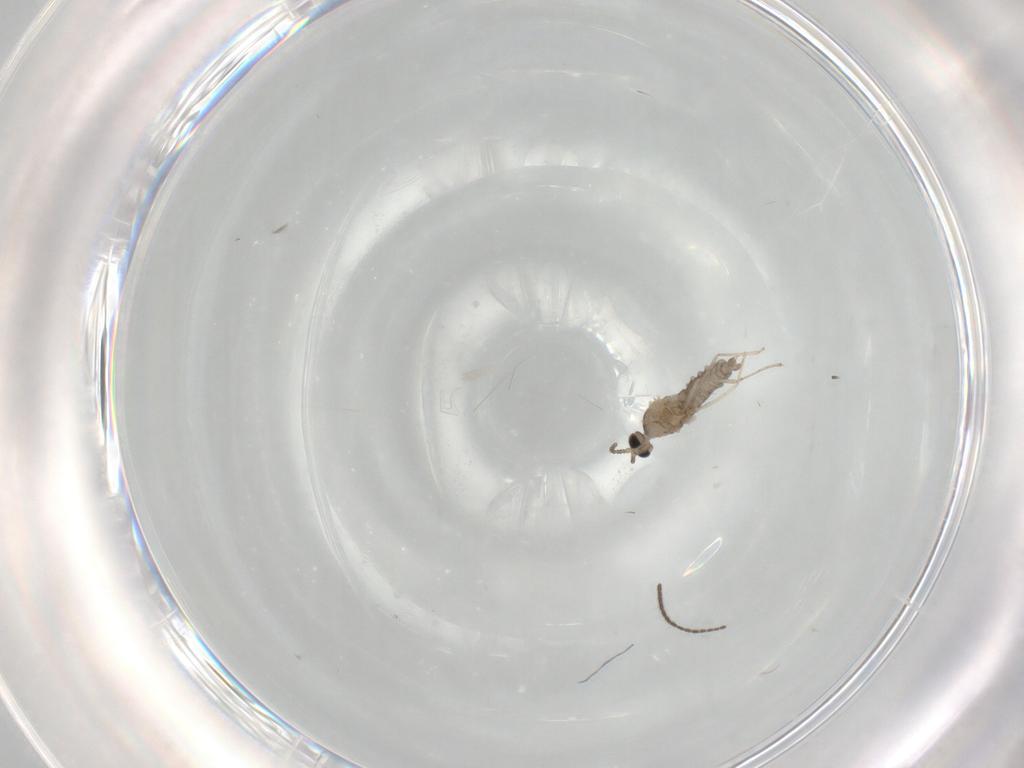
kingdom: Animalia
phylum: Arthropoda
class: Insecta
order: Diptera
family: Cecidomyiidae
